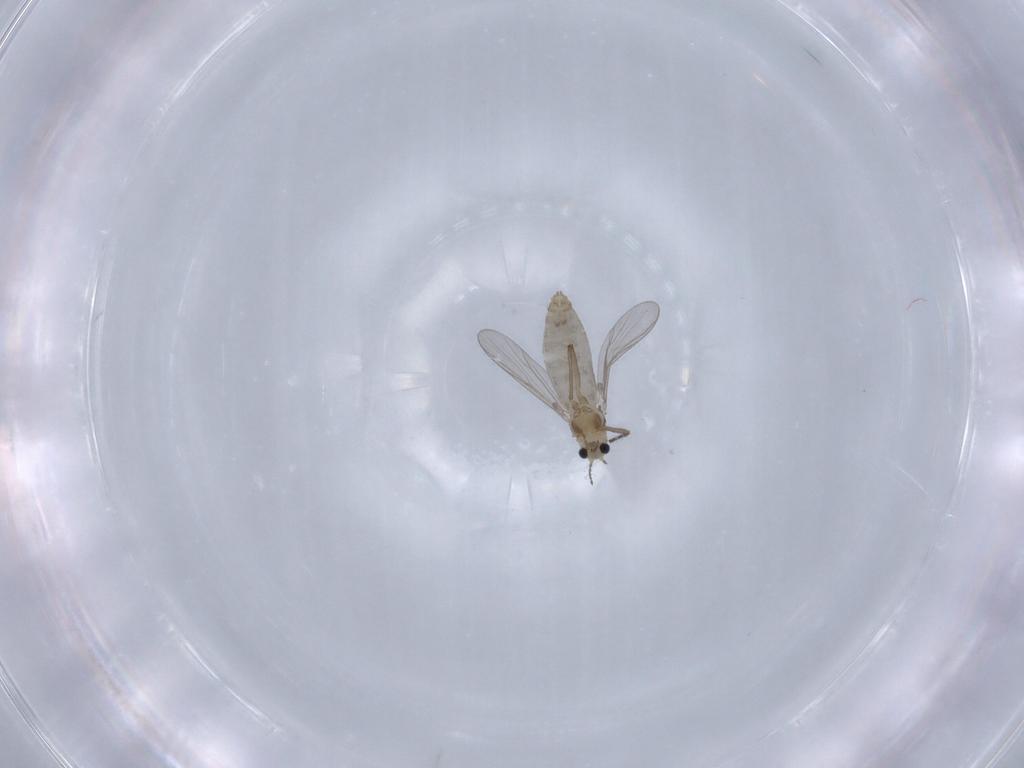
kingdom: Animalia
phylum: Arthropoda
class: Insecta
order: Diptera
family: Chironomidae
